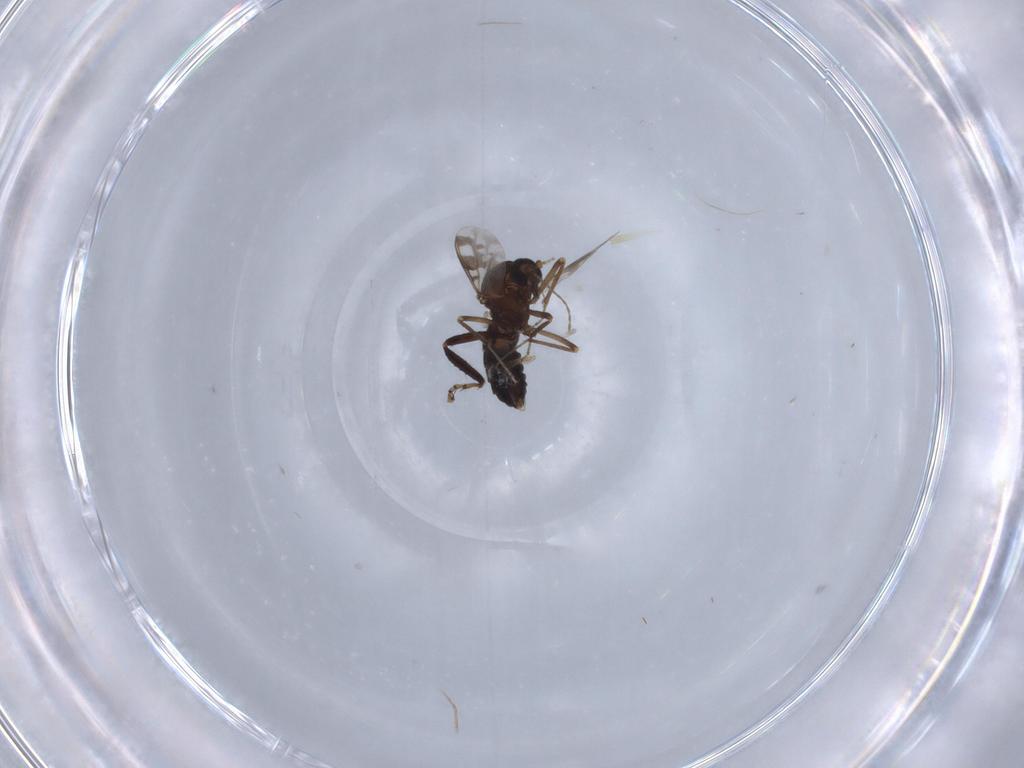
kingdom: Animalia
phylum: Arthropoda
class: Insecta
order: Diptera
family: Ceratopogonidae
